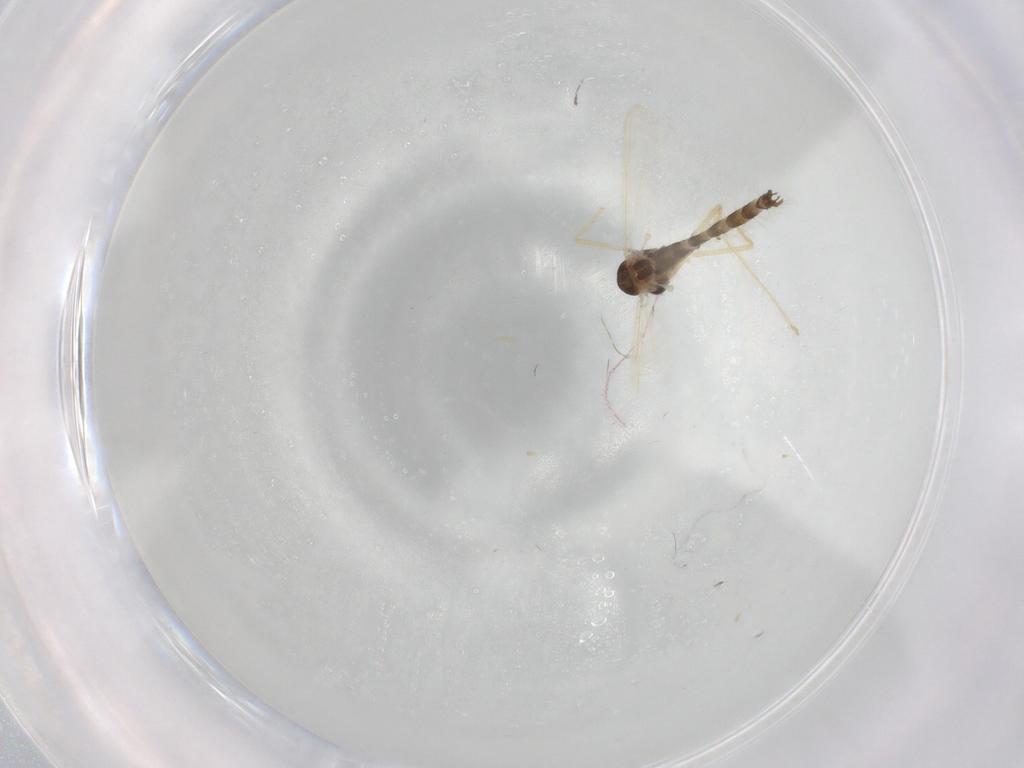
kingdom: Animalia
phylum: Arthropoda
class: Insecta
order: Diptera
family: Chironomidae
